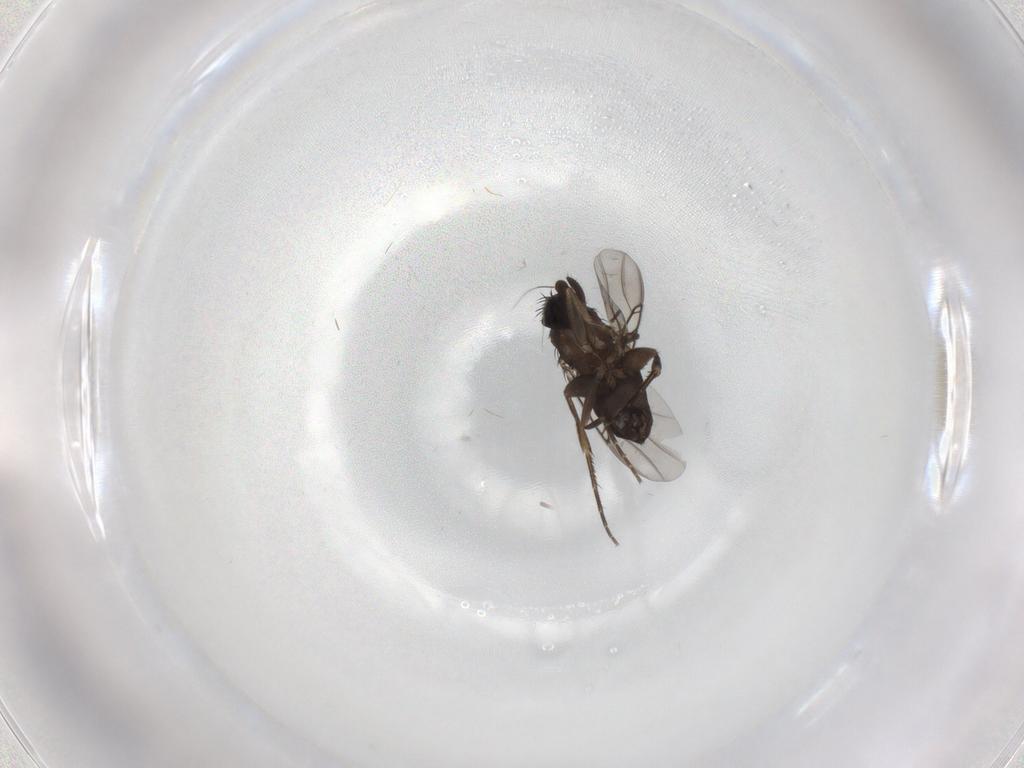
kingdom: Animalia
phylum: Arthropoda
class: Insecta
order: Diptera
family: Phoridae
